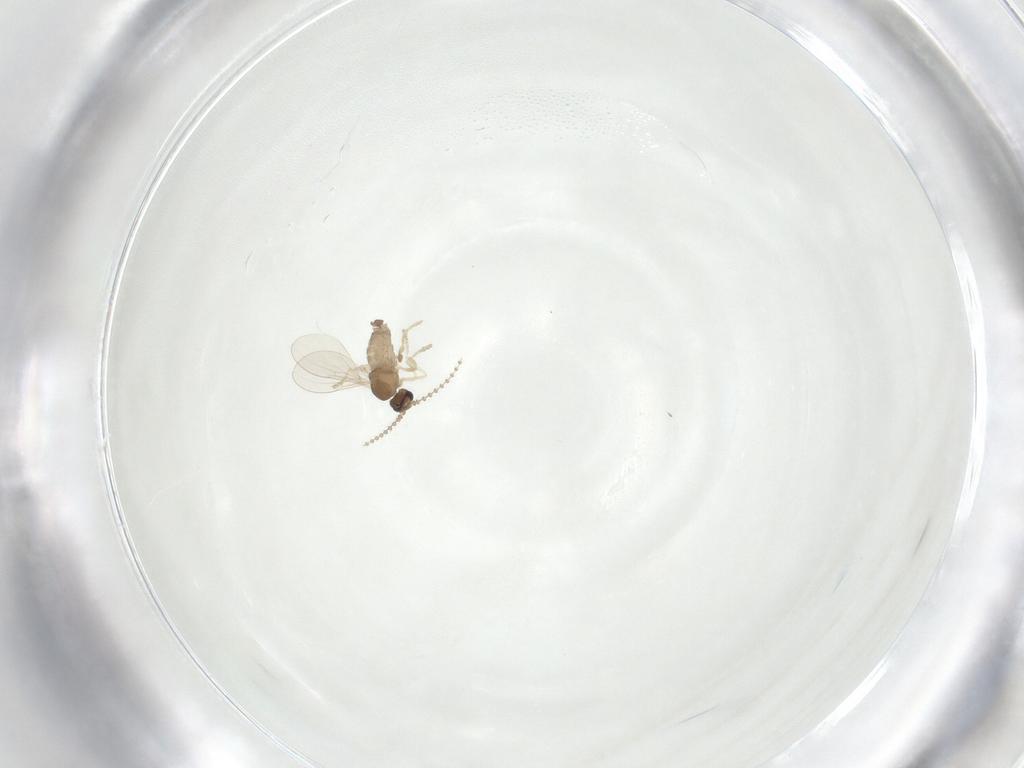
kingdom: Animalia
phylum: Arthropoda
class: Insecta
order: Diptera
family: Cecidomyiidae
